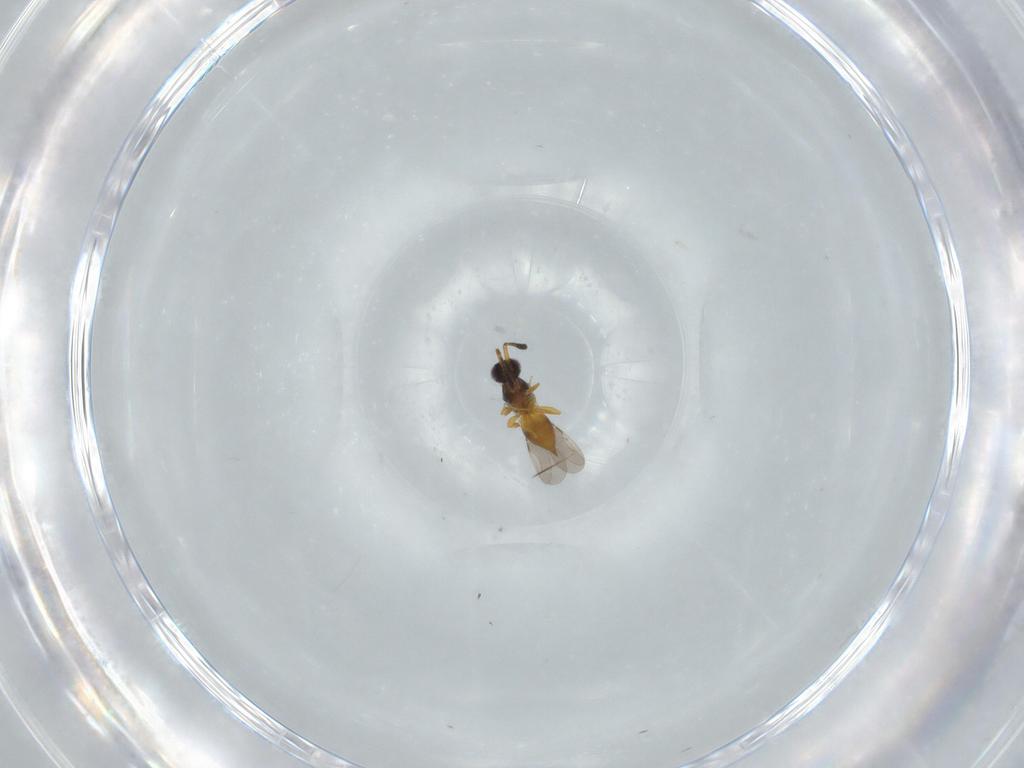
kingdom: Animalia
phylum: Arthropoda
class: Insecta
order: Hymenoptera
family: Ceraphronidae
